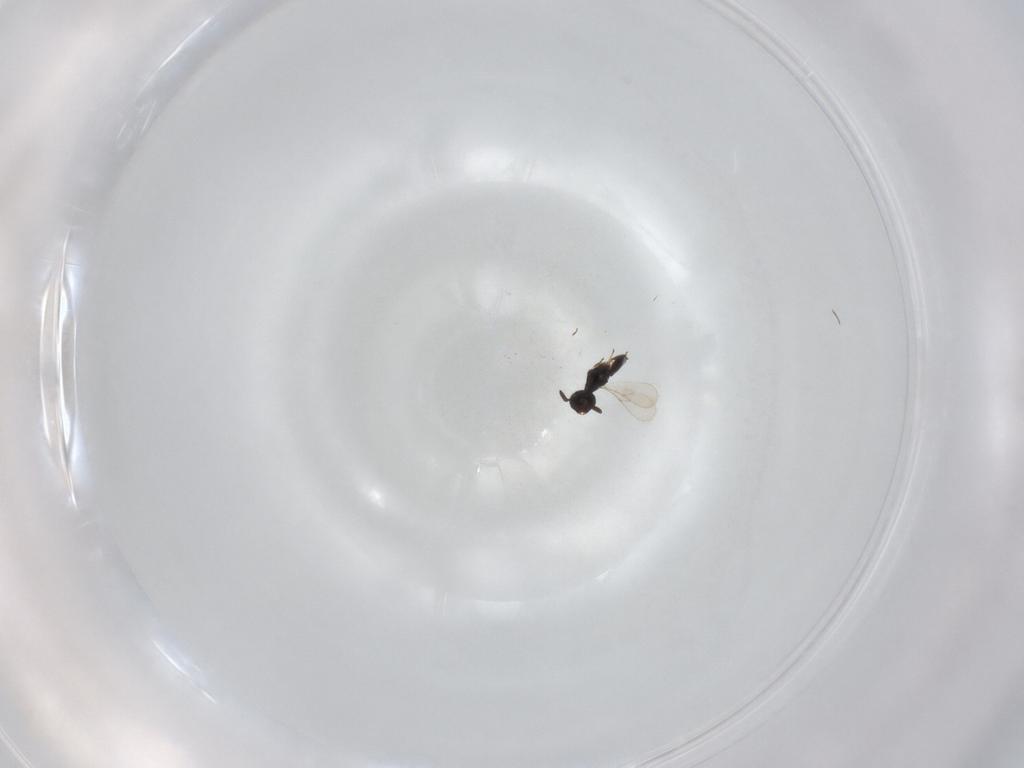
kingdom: Animalia
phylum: Arthropoda
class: Insecta
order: Hymenoptera
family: Scelionidae
